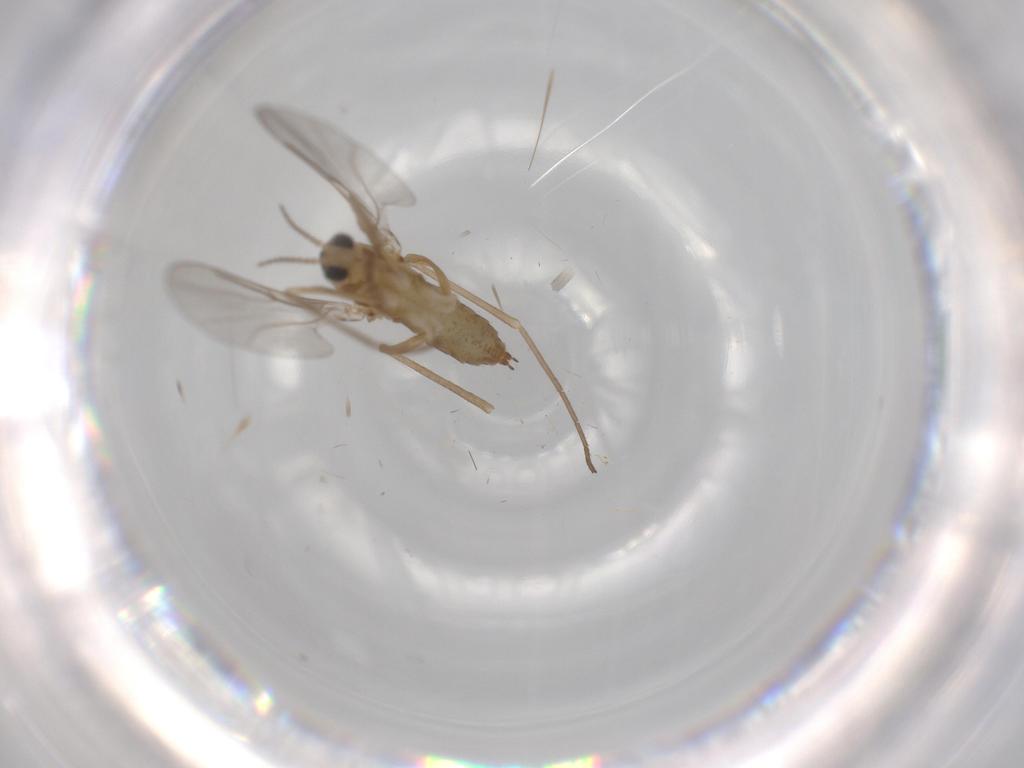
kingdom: Animalia
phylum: Arthropoda
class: Insecta
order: Diptera
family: Cecidomyiidae
